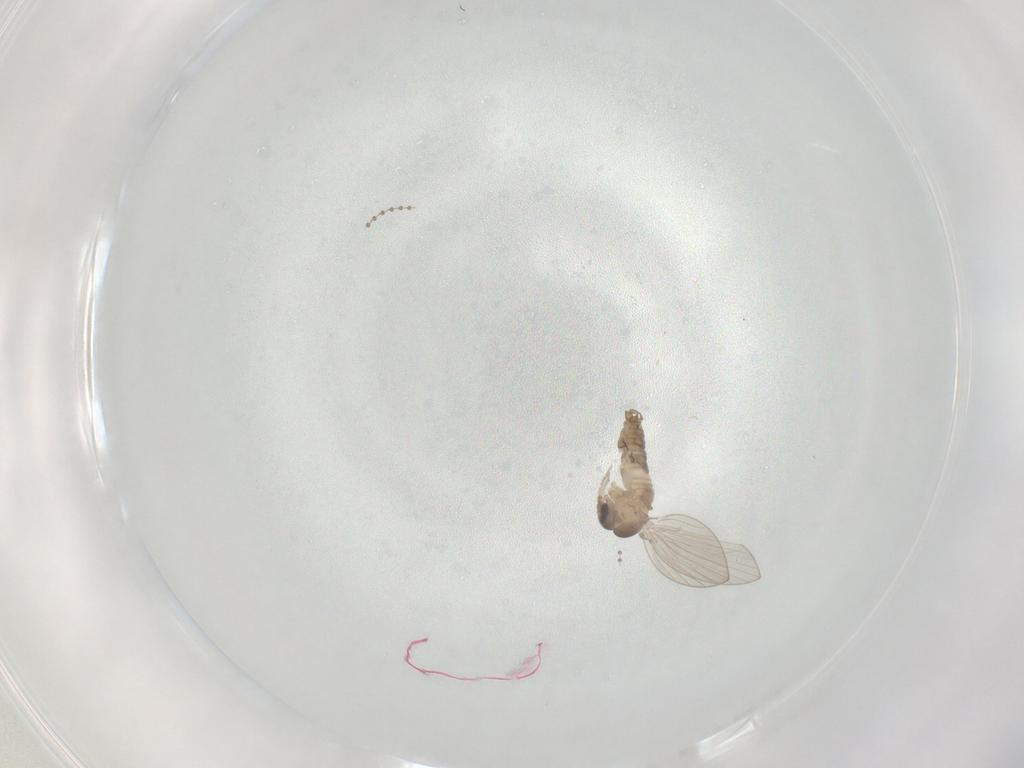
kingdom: Animalia
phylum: Arthropoda
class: Insecta
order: Diptera
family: Psychodidae
